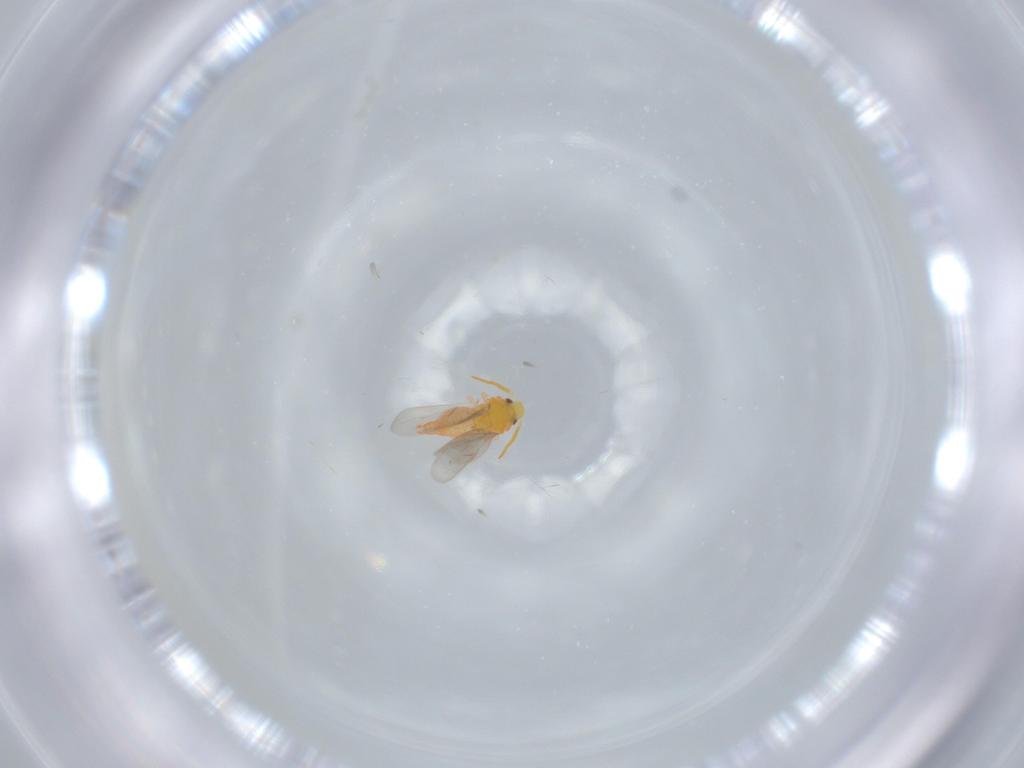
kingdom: Animalia
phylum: Arthropoda
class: Insecta
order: Hemiptera
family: Aleyrodidae
